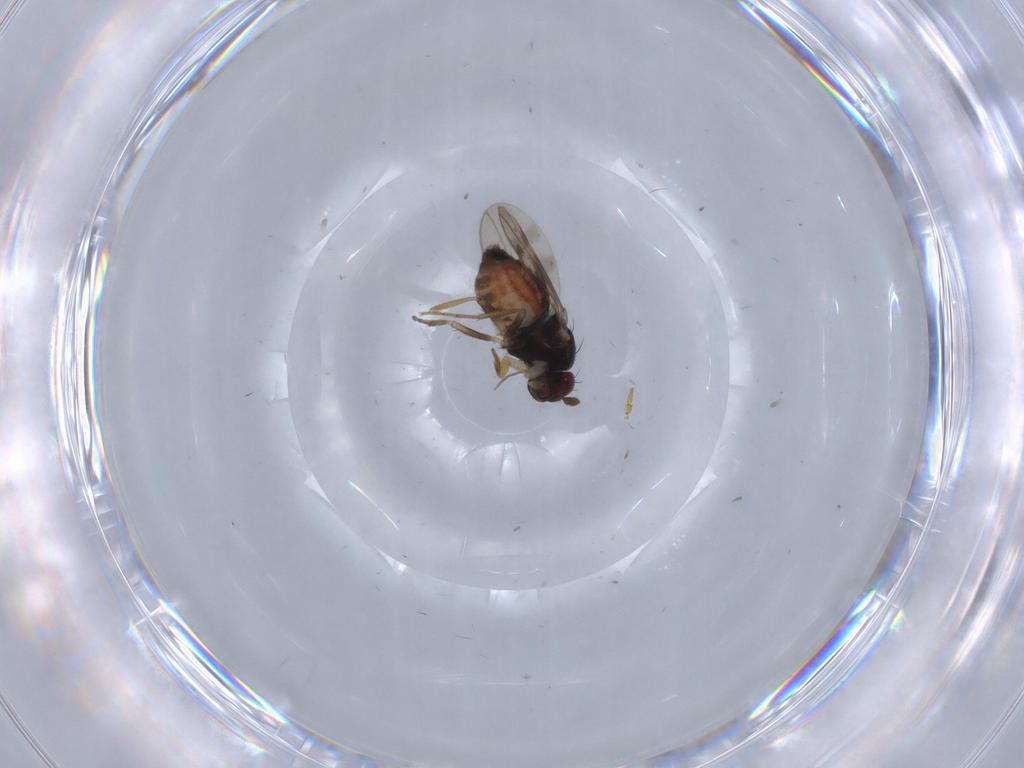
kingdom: Animalia
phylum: Arthropoda
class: Insecta
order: Diptera
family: Sphaeroceridae
